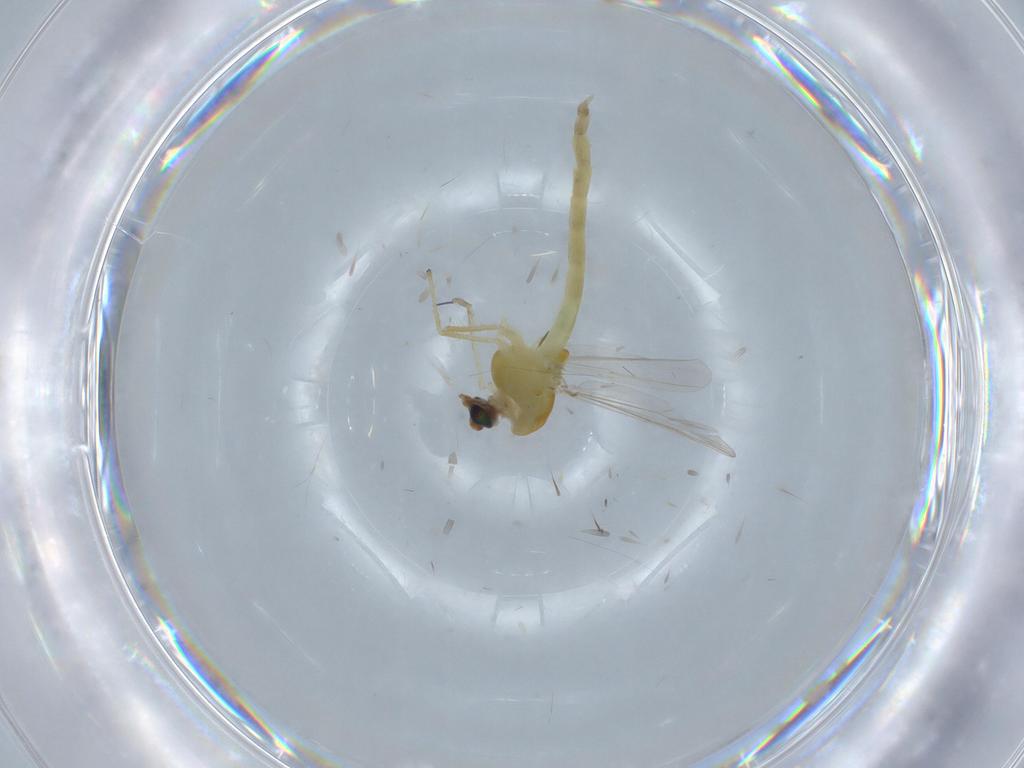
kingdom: Animalia
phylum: Arthropoda
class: Insecta
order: Diptera
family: Chironomidae
